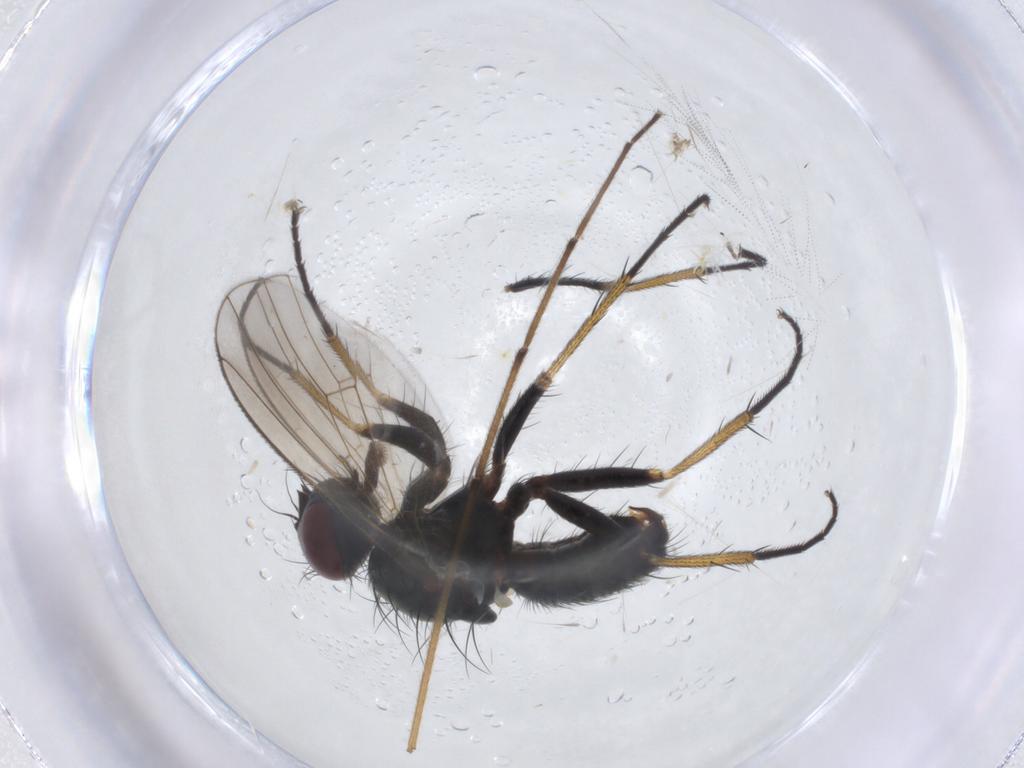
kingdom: Animalia
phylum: Arthropoda
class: Insecta
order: Diptera
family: Muscidae
